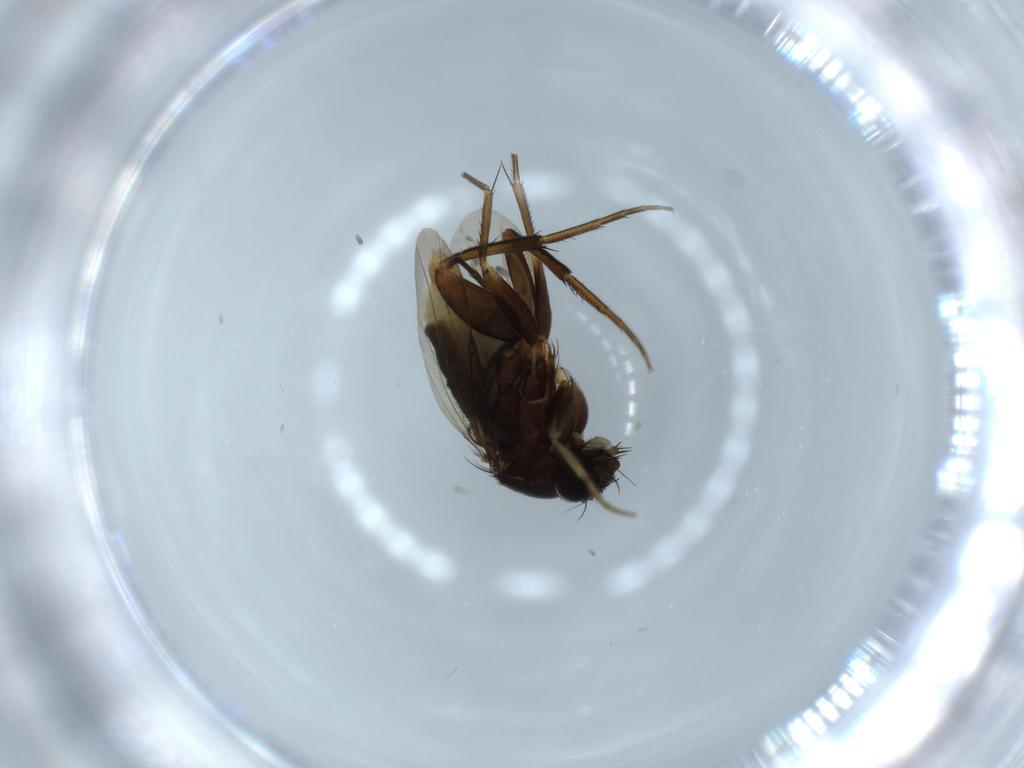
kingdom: Animalia
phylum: Arthropoda
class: Insecta
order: Diptera
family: Phoridae
